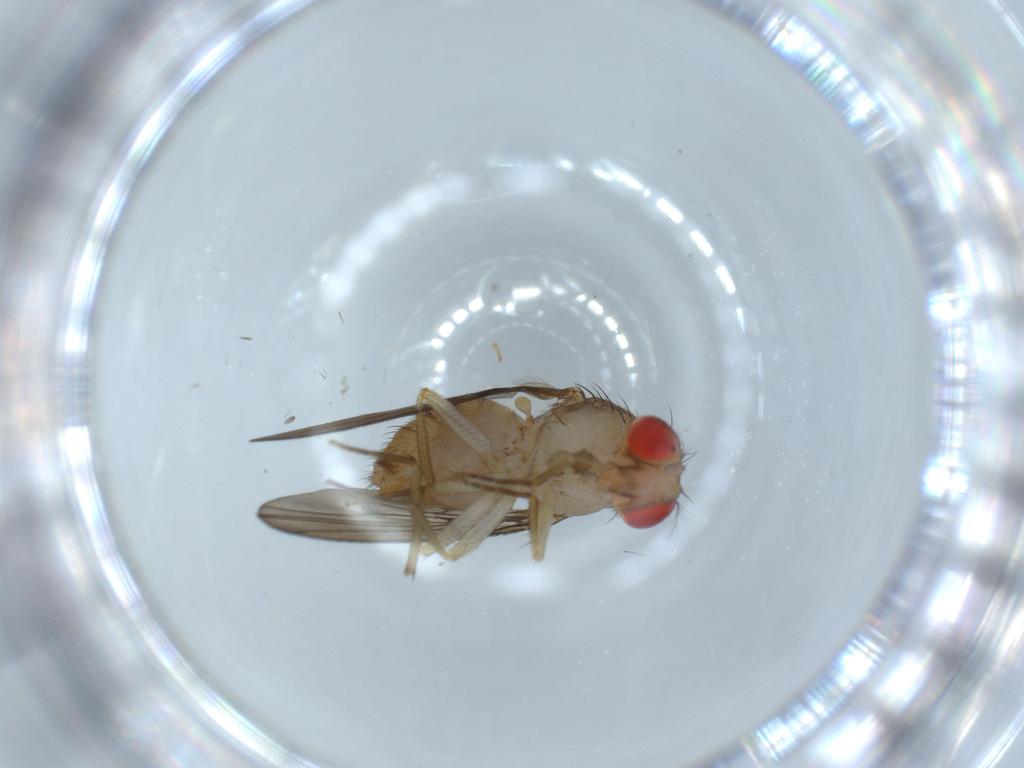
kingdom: Animalia
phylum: Arthropoda
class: Insecta
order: Diptera
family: Drosophilidae
